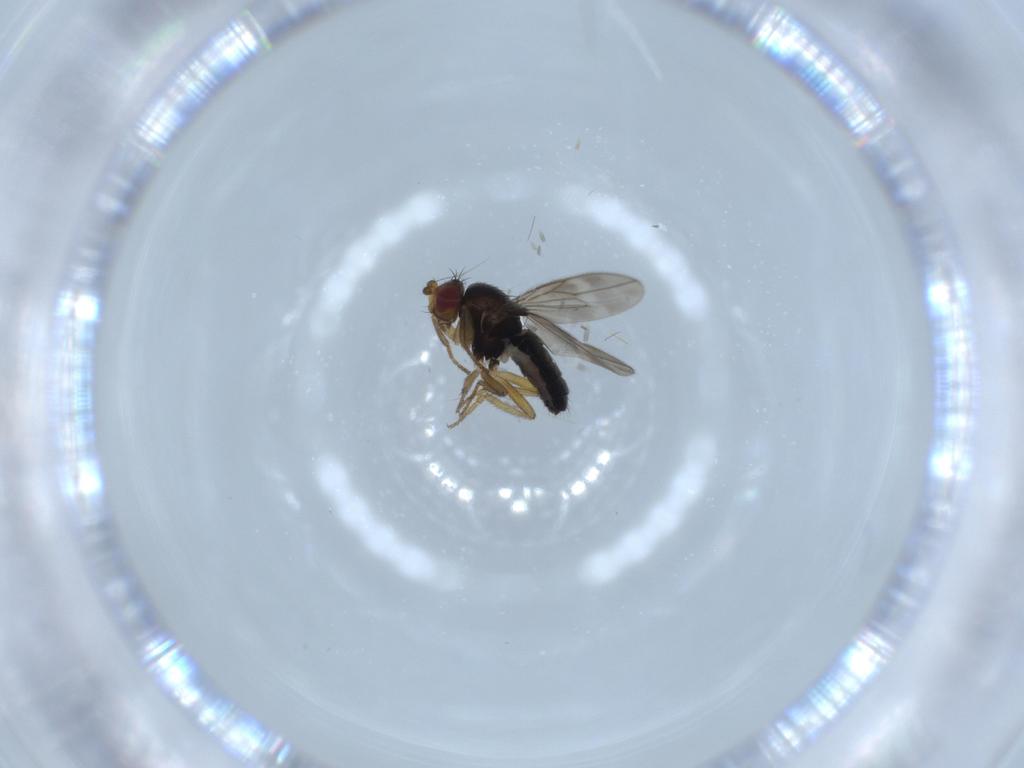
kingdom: Animalia
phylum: Arthropoda
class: Insecta
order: Diptera
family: Sphaeroceridae
